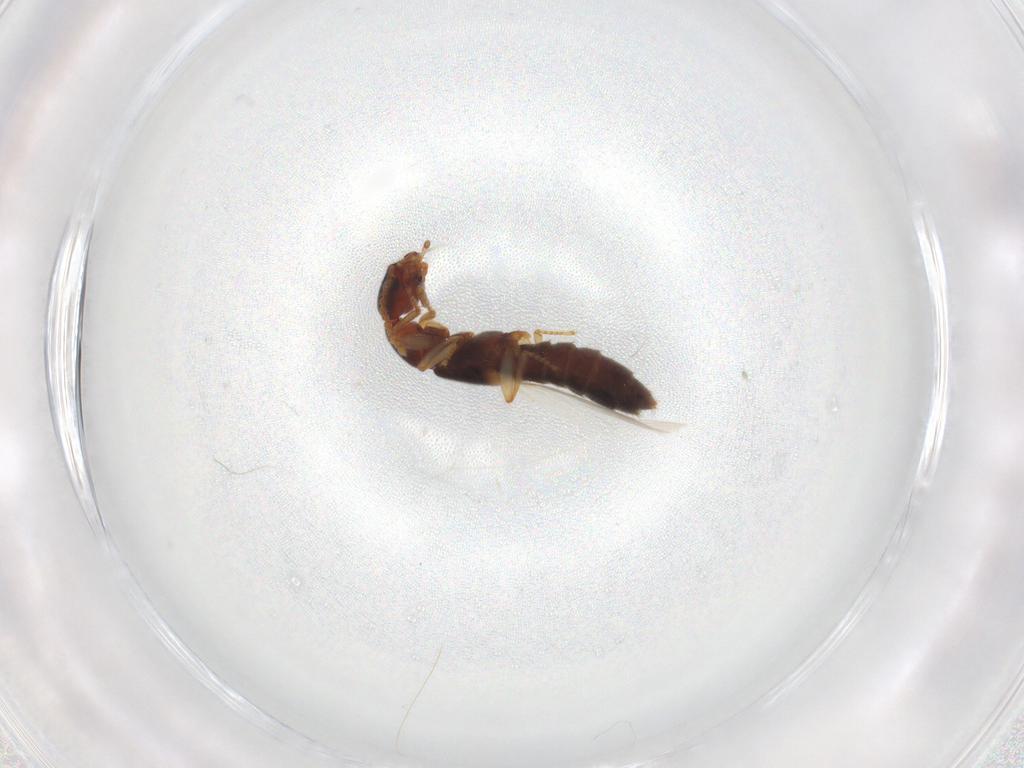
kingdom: Animalia
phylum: Arthropoda
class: Insecta
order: Coleoptera
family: Staphylinidae
